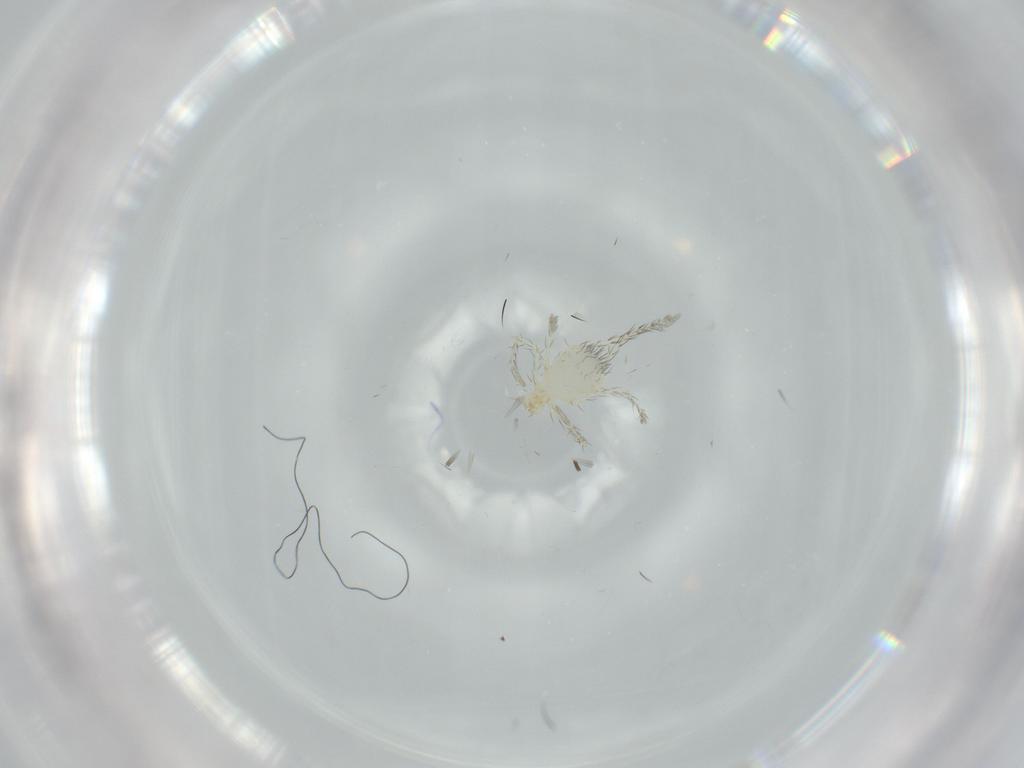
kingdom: Animalia
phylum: Arthropoda
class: Arachnida
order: Trombidiformes
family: Erythraeidae
